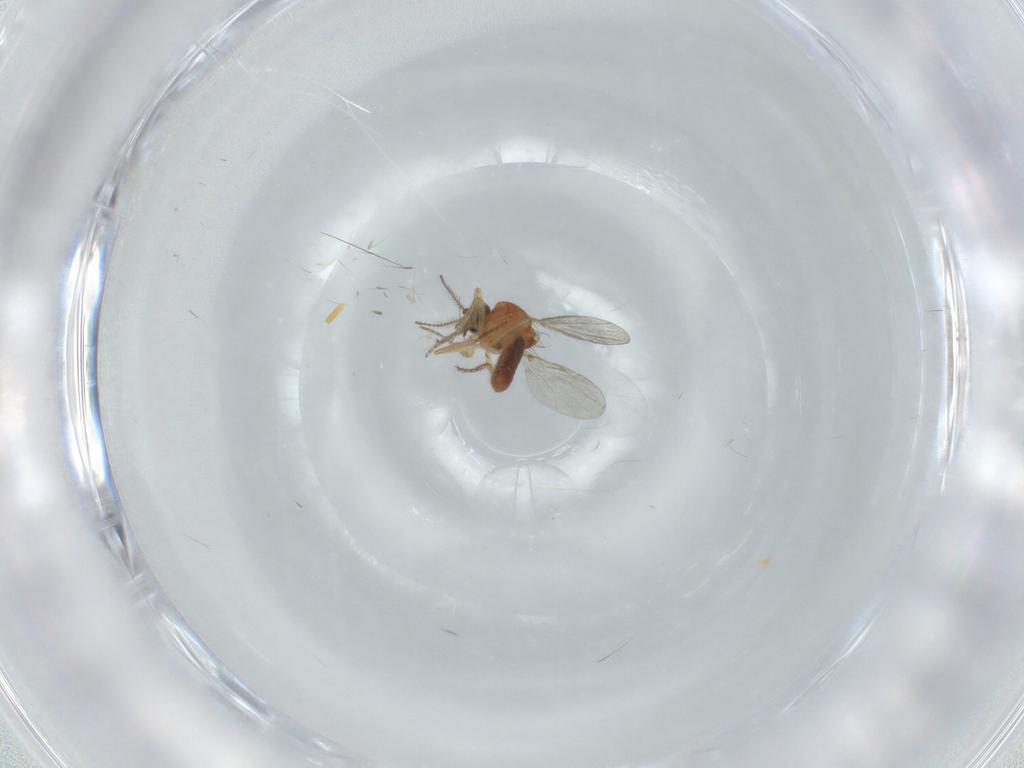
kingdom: Animalia
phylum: Arthropoda
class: Insecta
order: Diptera
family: Ceratopogonidae
